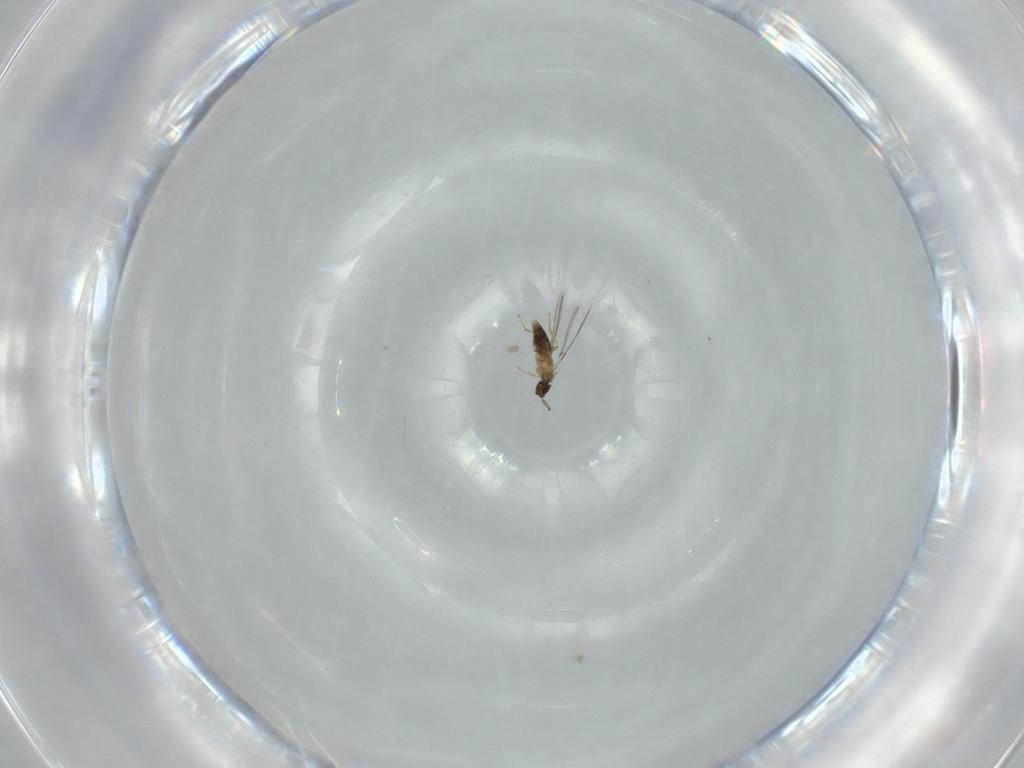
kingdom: Animalia
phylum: Arthropoda
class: Insecta
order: Hymenoptera
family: Mymaridae
